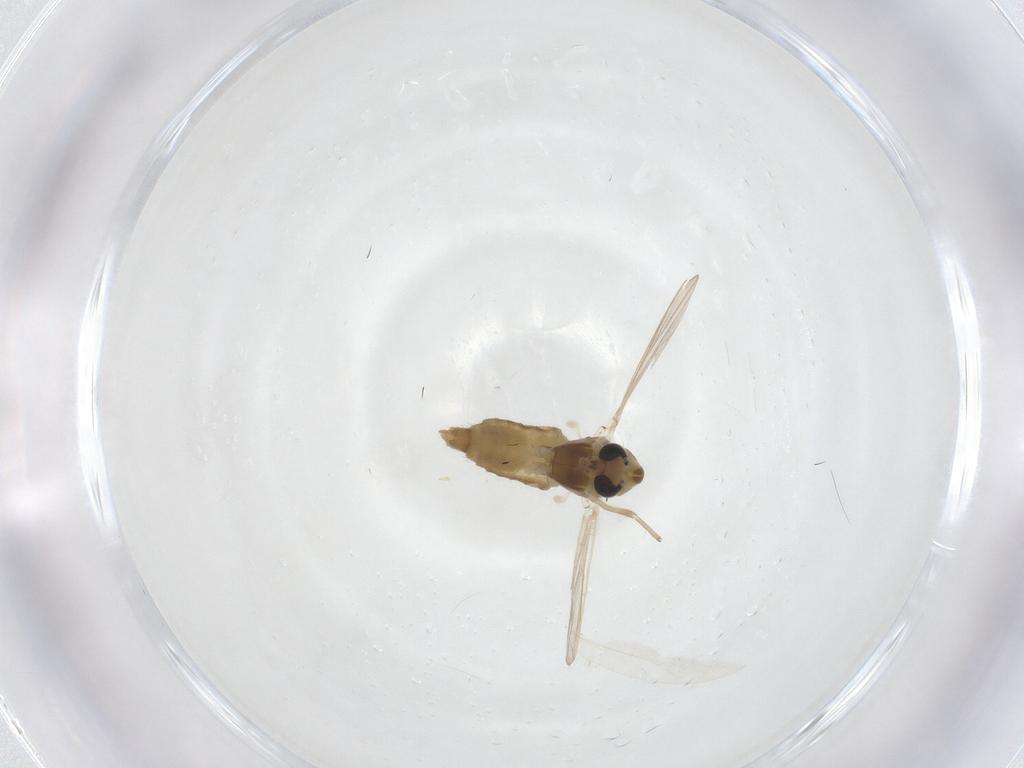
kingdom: Animalia
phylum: Arthropoda
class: Insecta
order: Diptera
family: Chironomidae
